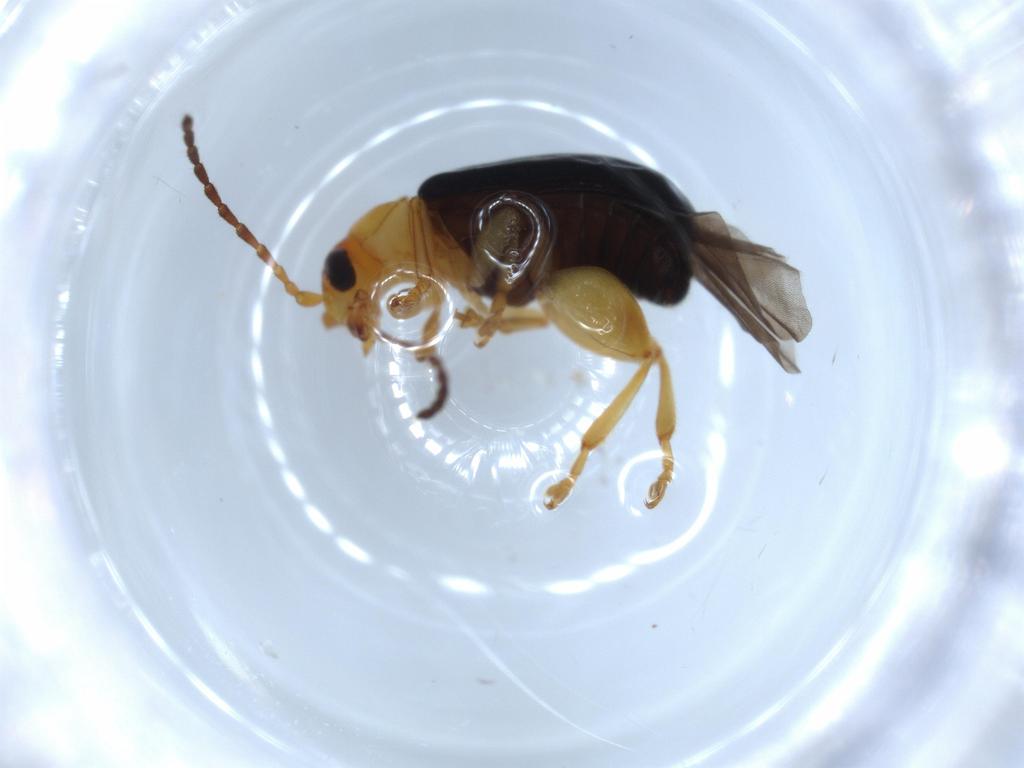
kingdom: Animalia
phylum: Arthropoda
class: Insecta
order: Coleoptera
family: Chrysomelidae
